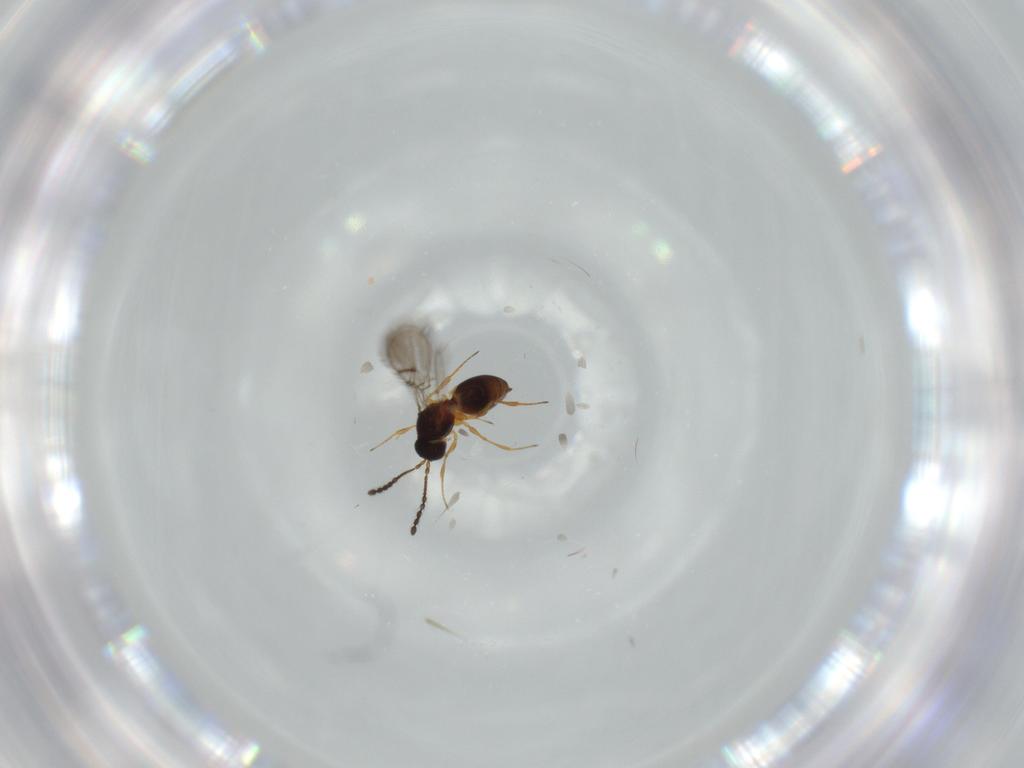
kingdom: Animalia
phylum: Arthropoda
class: Insecta
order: Hymenoptera
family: Figitidae
